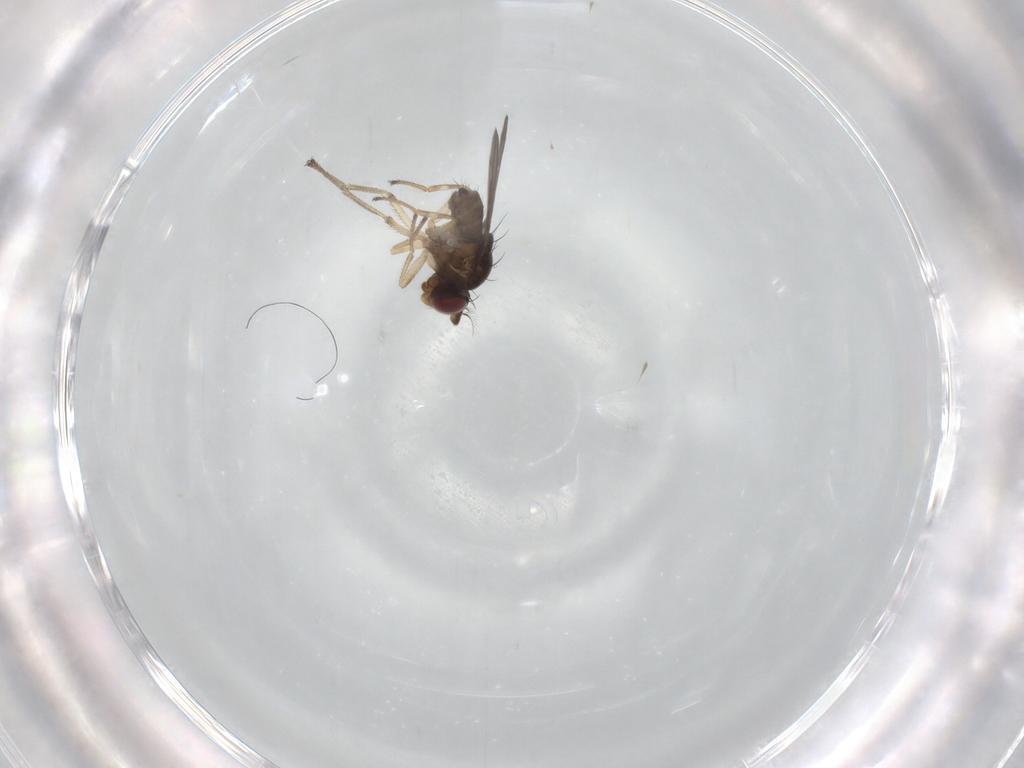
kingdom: Animalia
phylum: Arthropoda
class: Insecta
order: Diptera
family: Ephydridae
